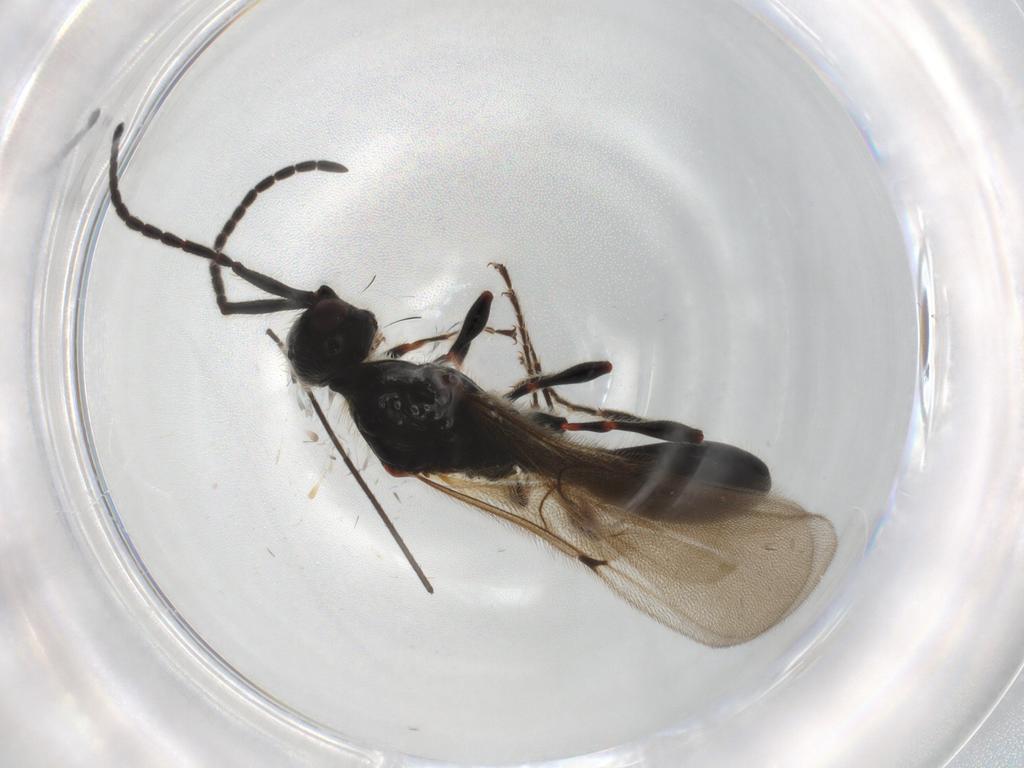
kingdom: Animalia
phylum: Arthropoda
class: Insecta
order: Hymenoptera
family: Diapriidae
